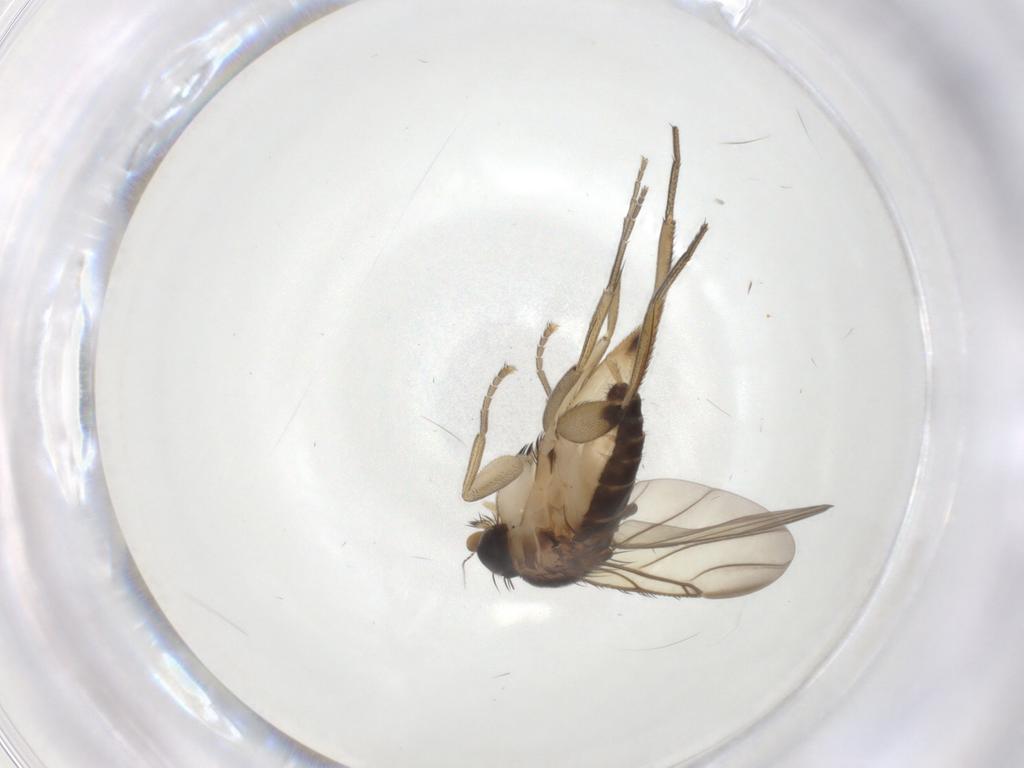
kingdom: Animalia
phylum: Arthropoda
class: Insecta
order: Diptera
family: Phoridae
